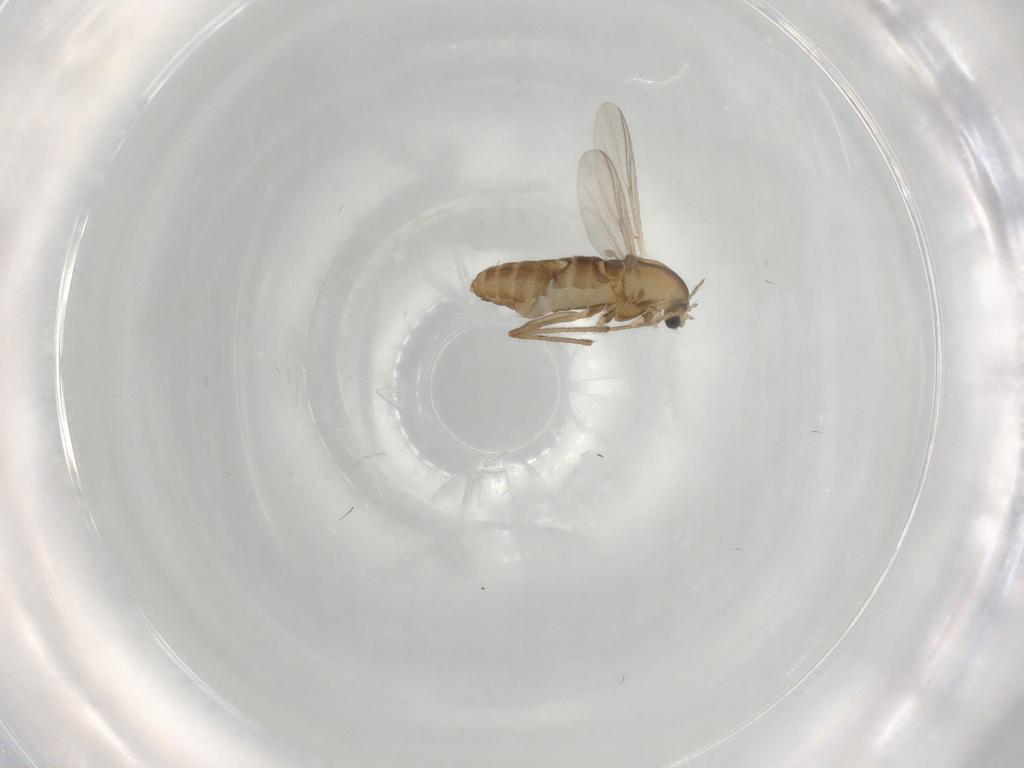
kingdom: Animalia
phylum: Arthropoda
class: Insecta
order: Diptera
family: Chironomidae
